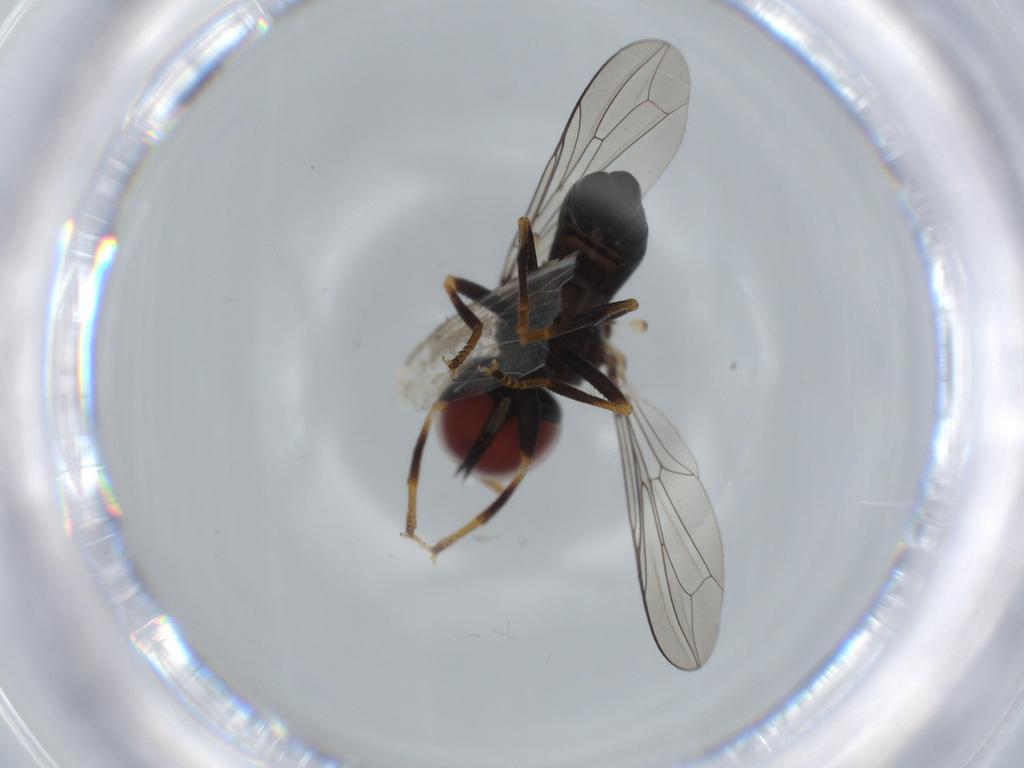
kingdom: Animalia
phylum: Arthropoda
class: Insecta
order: Diptera
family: Pipunculidae
